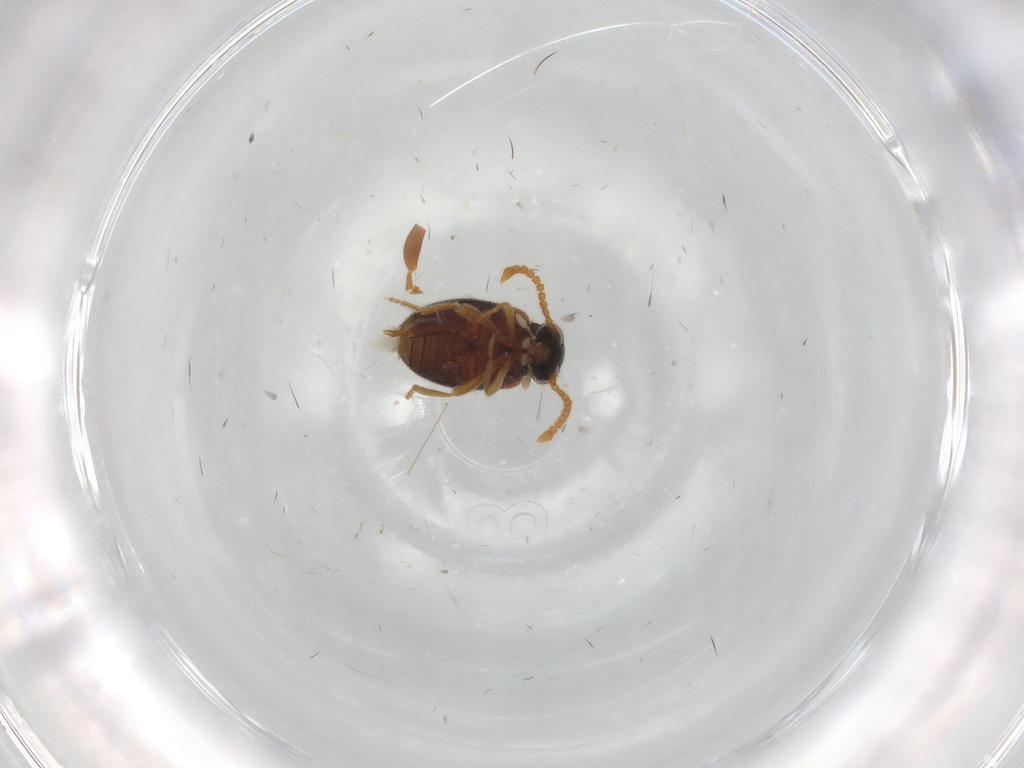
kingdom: Animalia
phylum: Arthropoda
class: Insecta
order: Coleoptera
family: Aderidae
